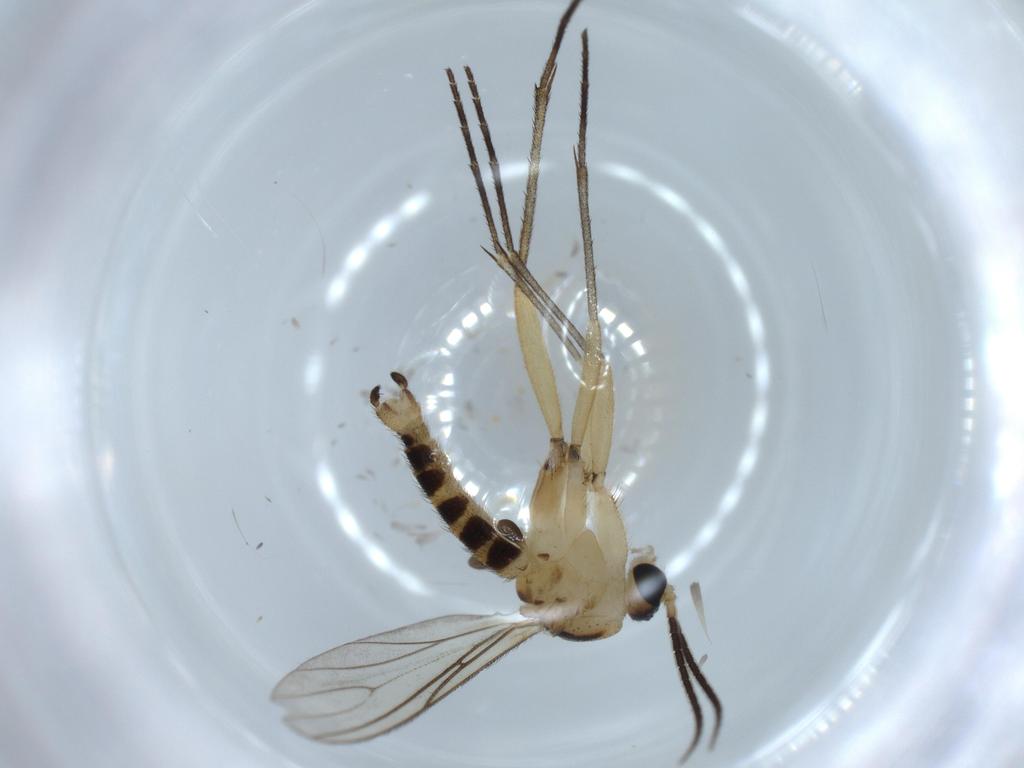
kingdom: Animalia
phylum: Arthropoda
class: Insecta
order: Diptera
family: Sciaridae
